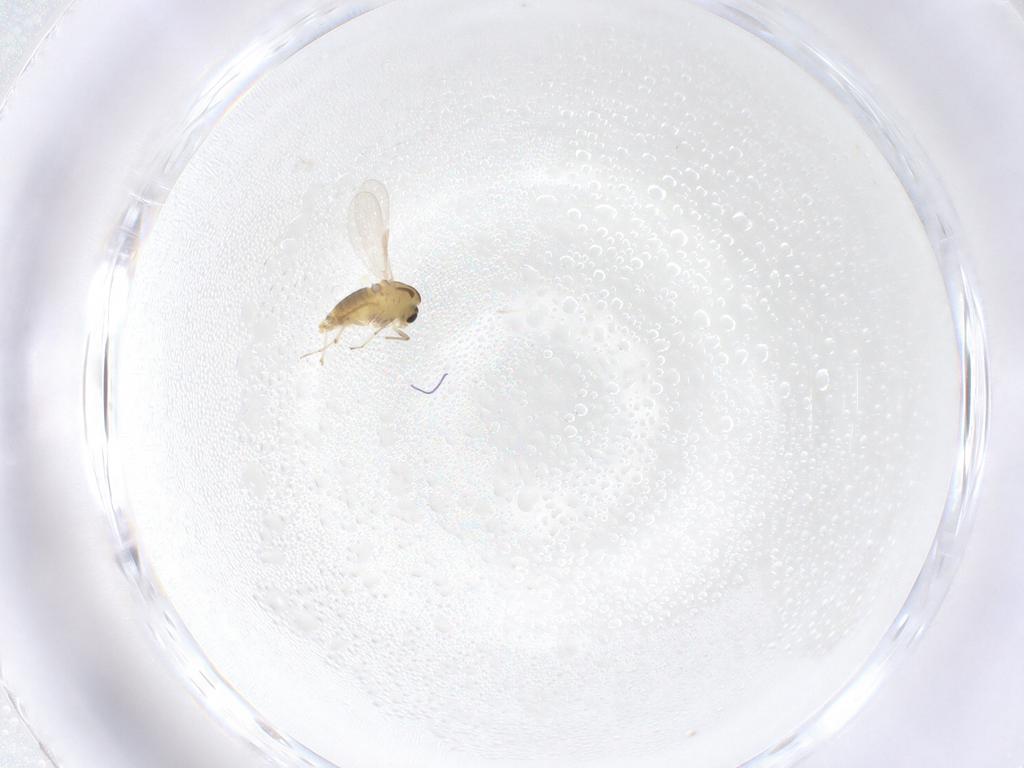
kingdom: Animalia
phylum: Arthropoda
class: Insecta
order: Diptera
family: Chironomidae
